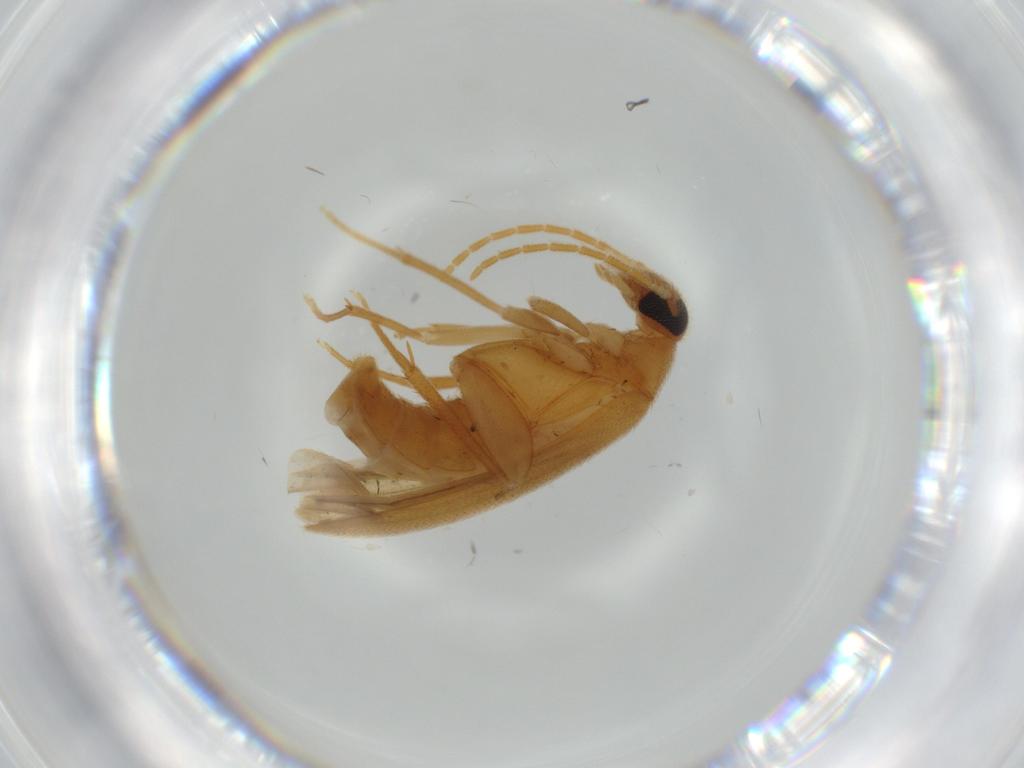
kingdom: Animalia
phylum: Arthropoda
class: Insecta
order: Coleoptera
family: Scraptiidae
